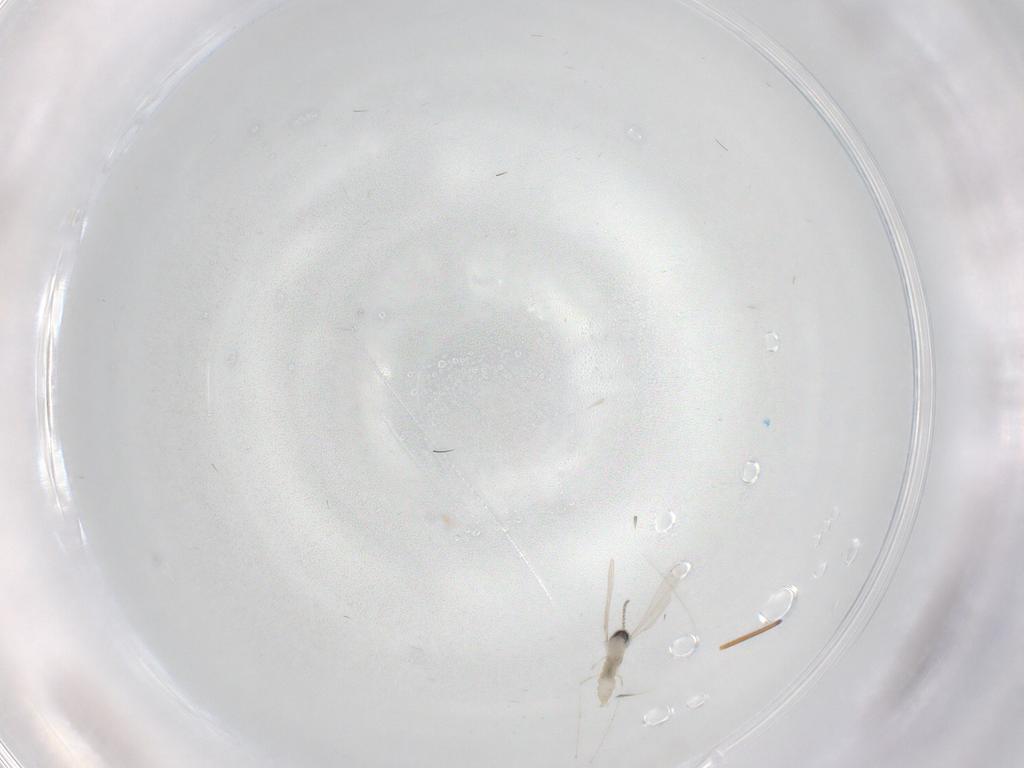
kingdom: Animalia
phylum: Arthropoda
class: Insecta
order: Diptera
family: Cecidomyiidae
